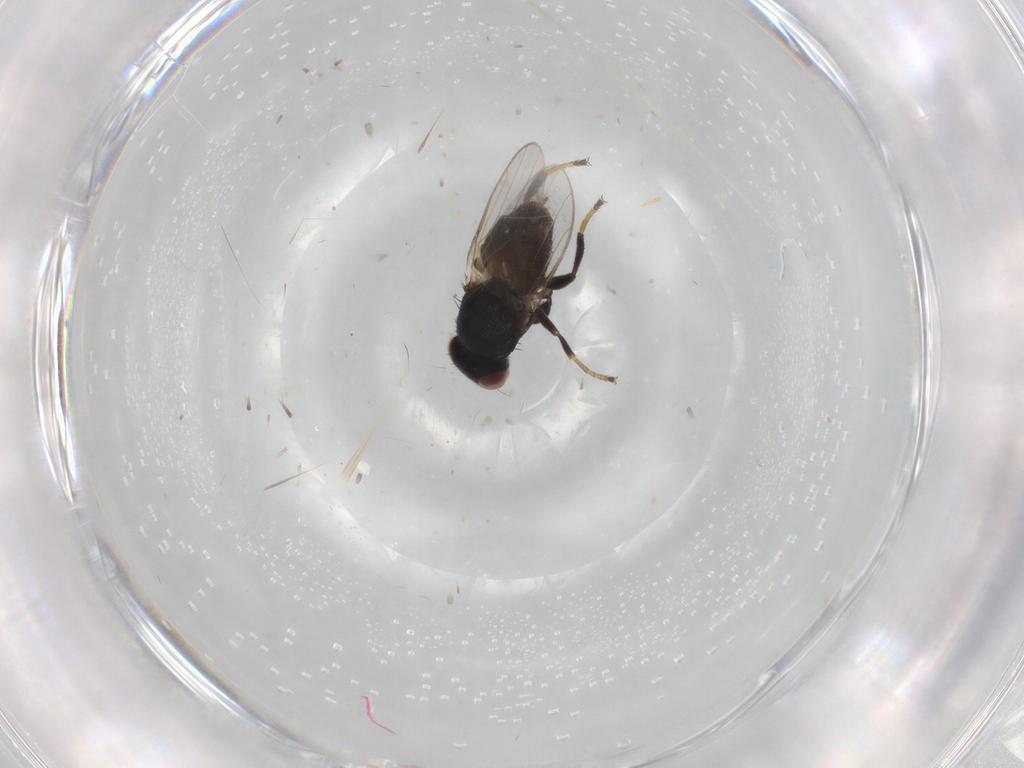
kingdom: Animalia
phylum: Arthropoda
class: Insecta
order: Diptera
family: Chloropidae
